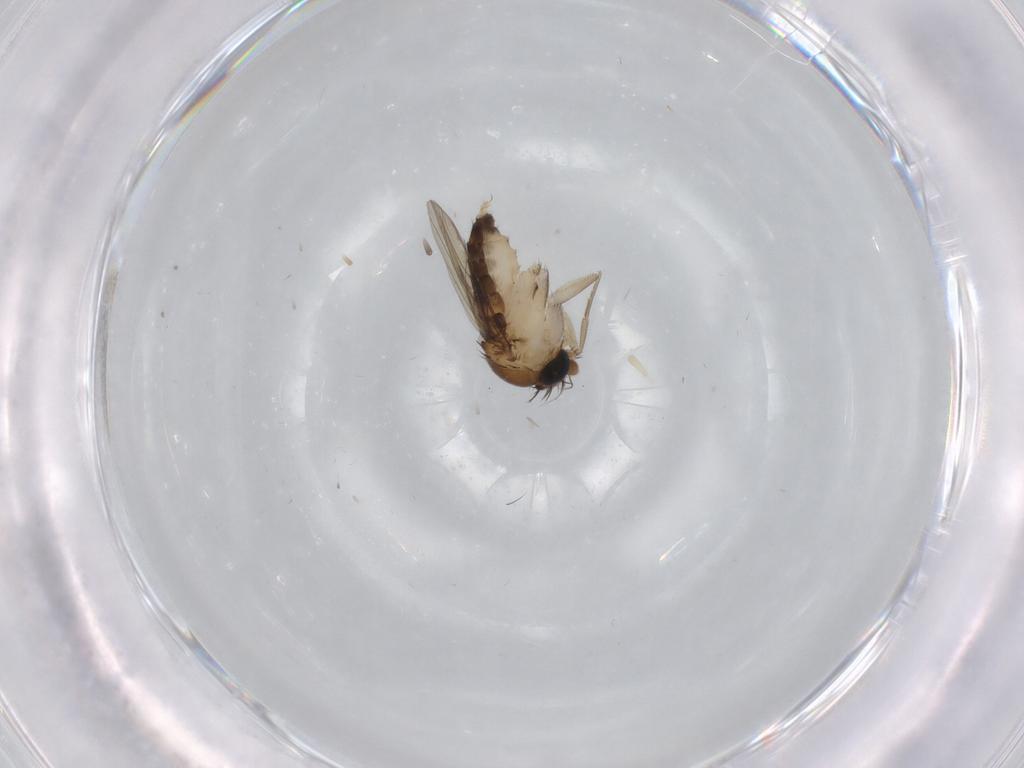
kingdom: Animalia
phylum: Arthropoda
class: Insecta
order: Diptera
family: Phoridae
